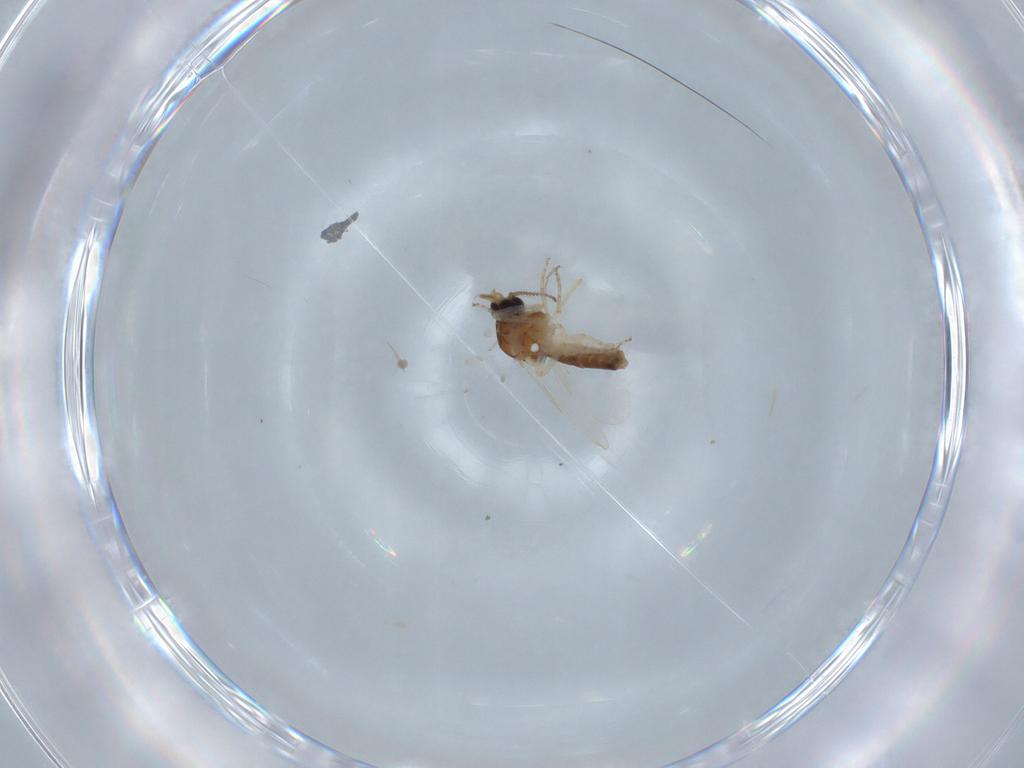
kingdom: Animalia
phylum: Arthropoda
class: Insecta
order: Diptera
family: Ceratopogonidae
